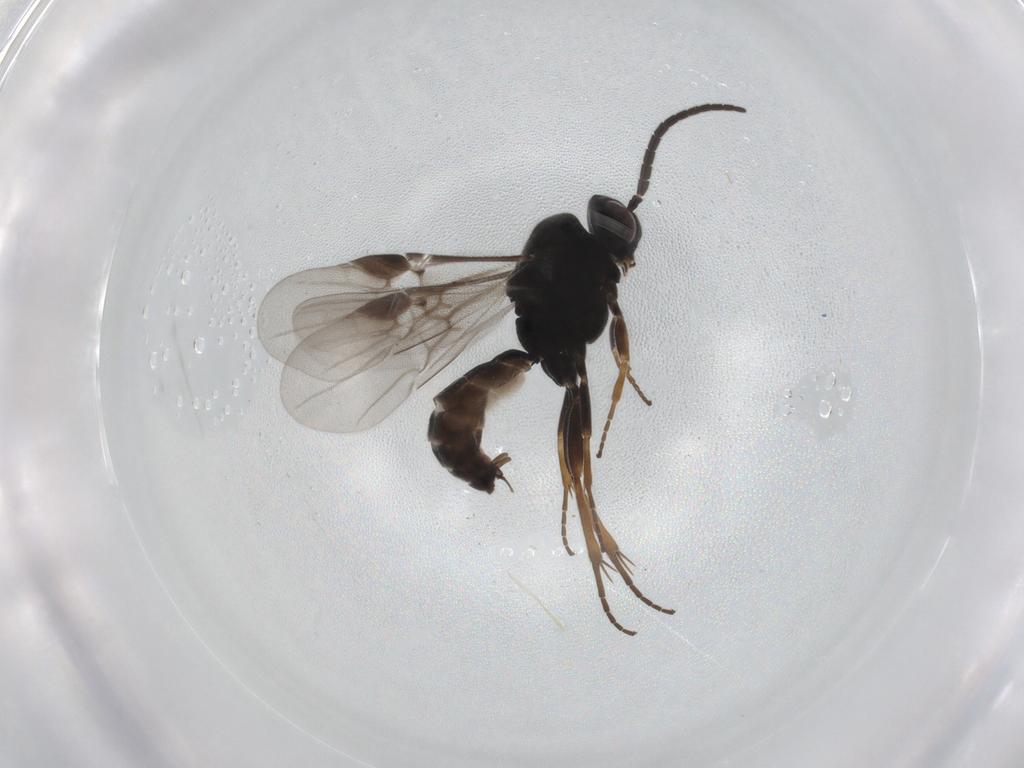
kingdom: Animalia
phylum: Arthropoda
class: Insecta
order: Hymenoptera
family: Braconidae
